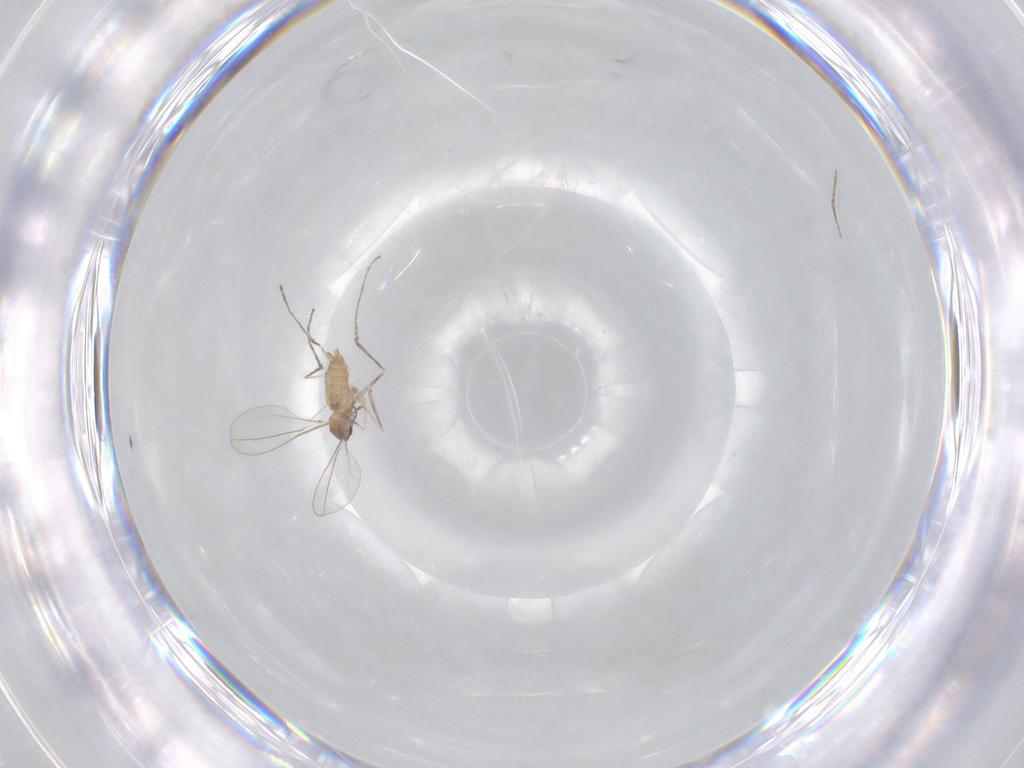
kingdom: Animalia
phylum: Arthropoda
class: Insecta
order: Diptera
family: Cecidomyiidae
